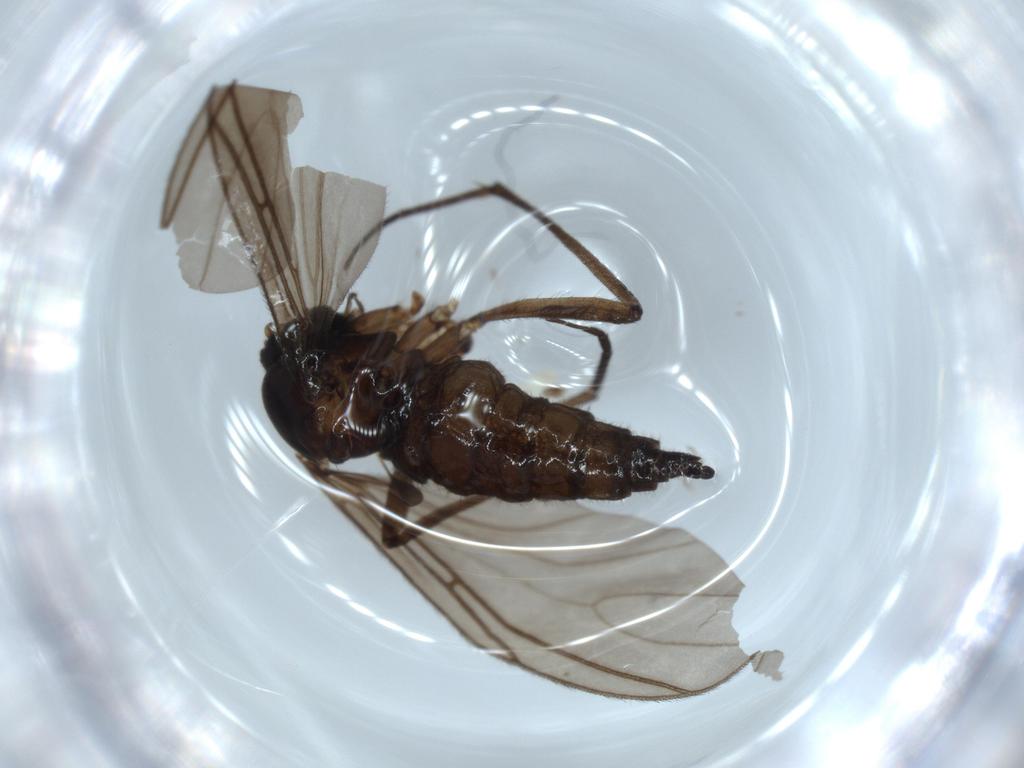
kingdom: Animalia
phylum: Arthropoda
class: Insecta
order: Diptera
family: Sciaridae
